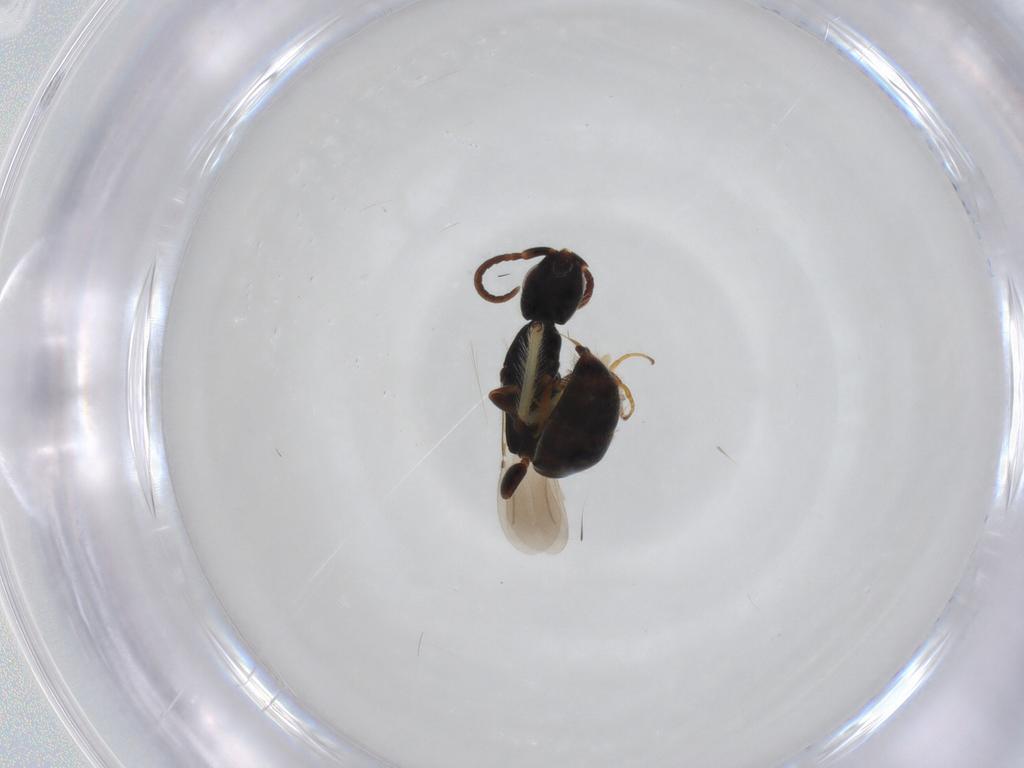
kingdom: Animalia
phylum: Arthropoda
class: Insecta
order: Hymenoptera
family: Bethylidae
